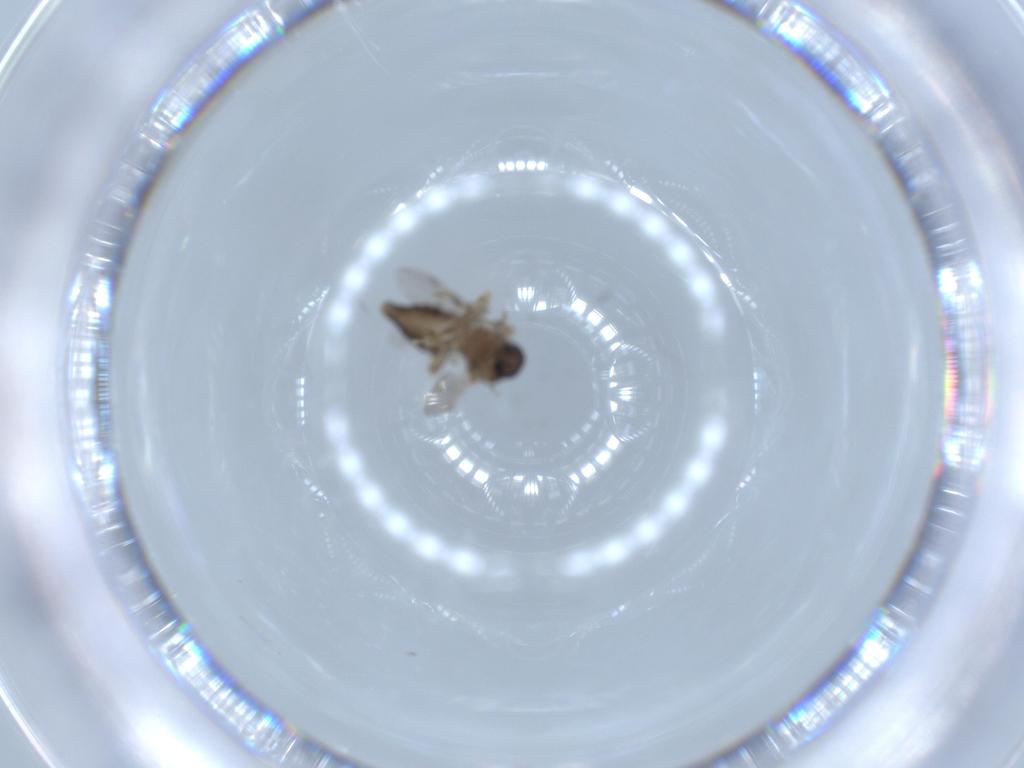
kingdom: Animalia
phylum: Arthropoda
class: Insecta
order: Diptera
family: Ceratopogonidae
